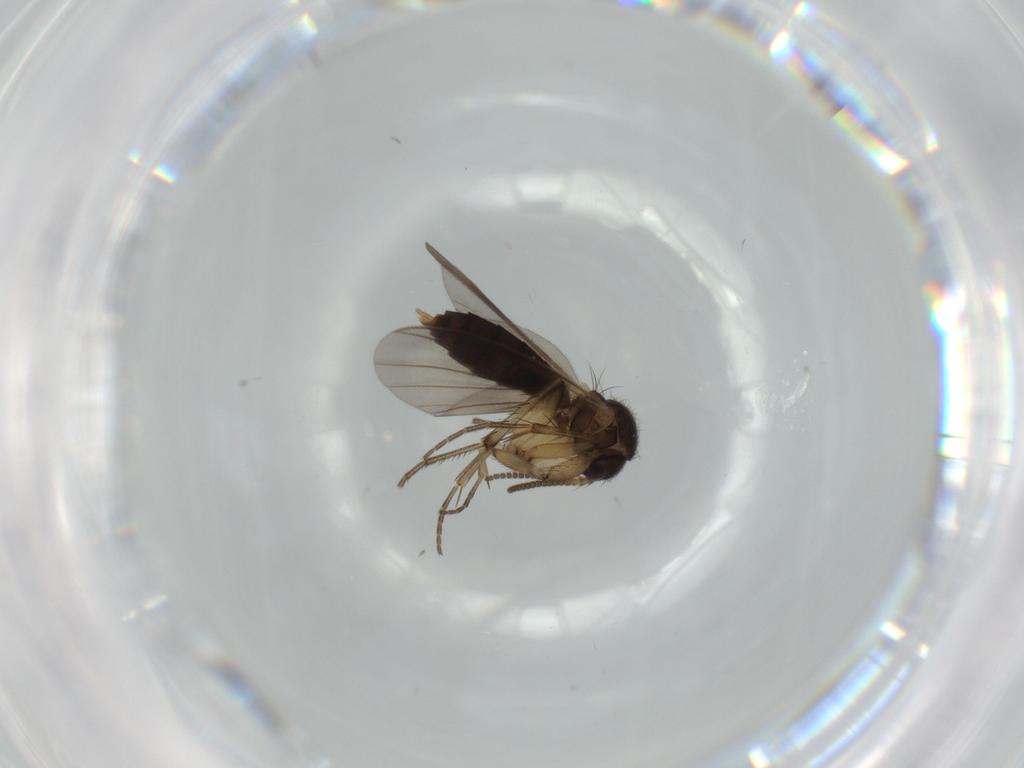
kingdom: Animalia
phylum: Arthropoda
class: Insecta
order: Diptera
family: Mycetophilidae
